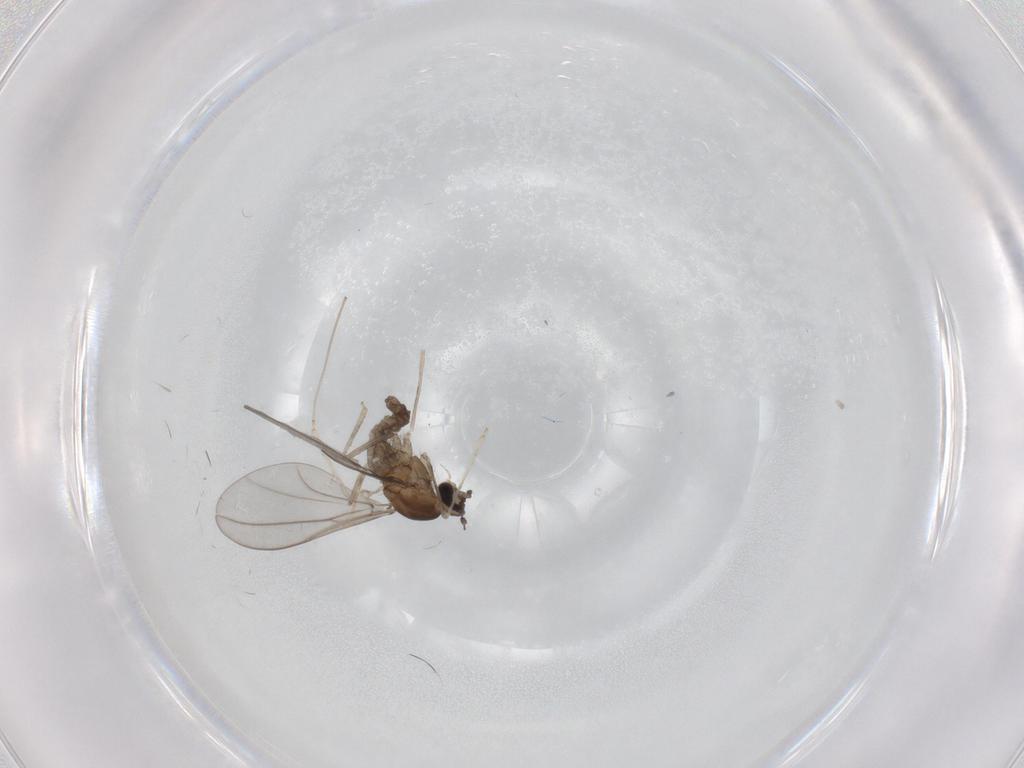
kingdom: Animalia
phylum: Arthropoda
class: Insecta
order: Diptera
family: Cecidomyiidae
